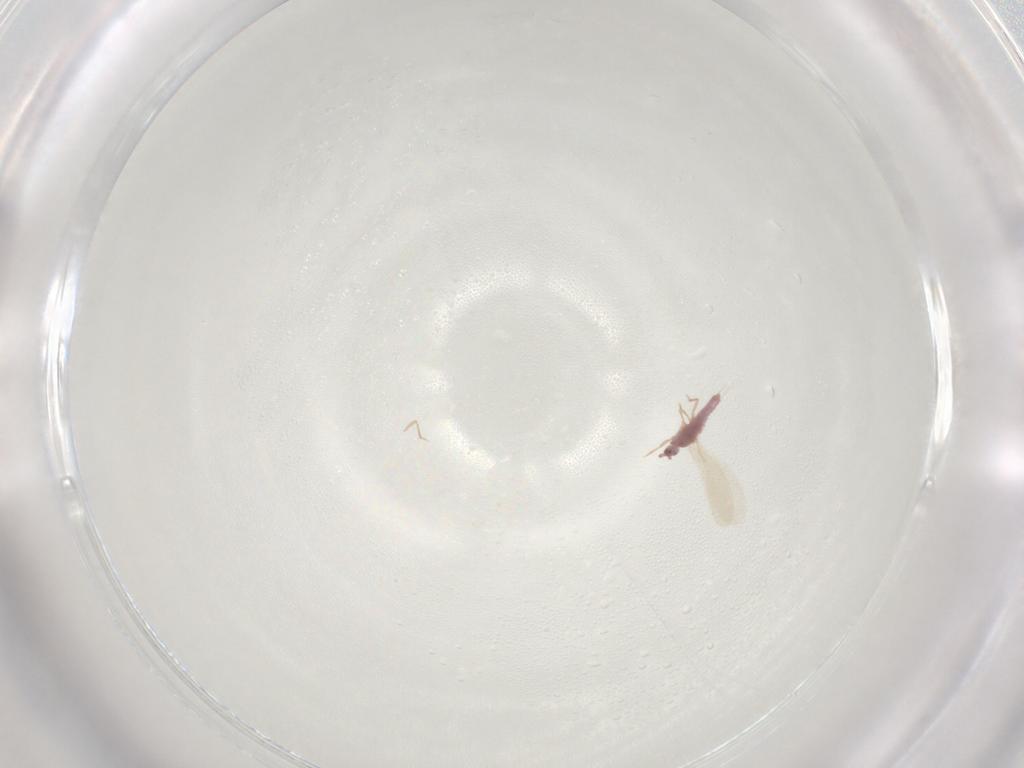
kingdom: Animalia
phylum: Arthropoda
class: Insecta
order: Hemiptera
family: Pseudococcidae
